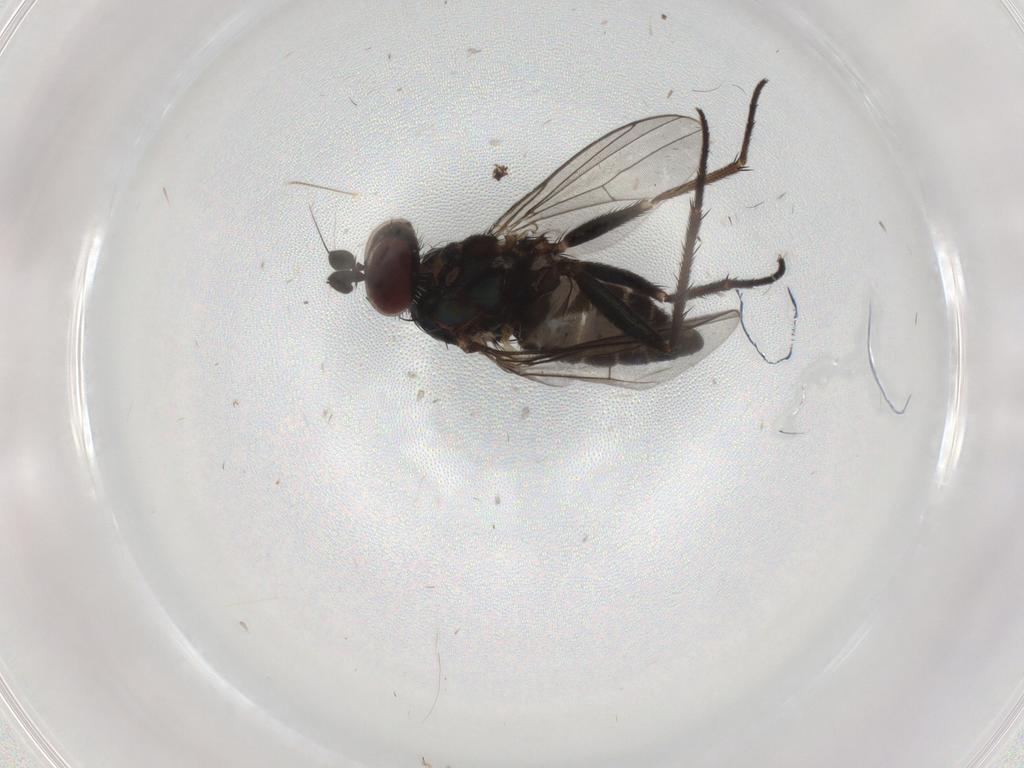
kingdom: Animalia
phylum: Arthropoda
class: Insecta
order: Diptera
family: Dolichopodidae
